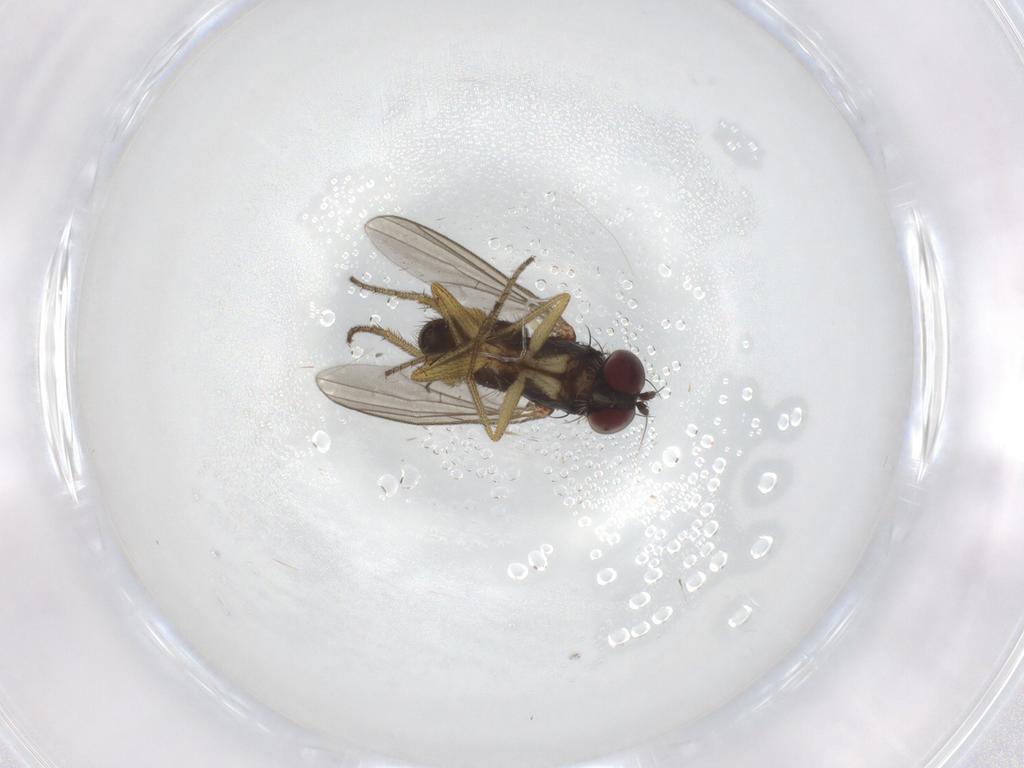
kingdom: Animalia
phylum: Arthropoda
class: Insecta
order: Diptera
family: Dolichopodidae
